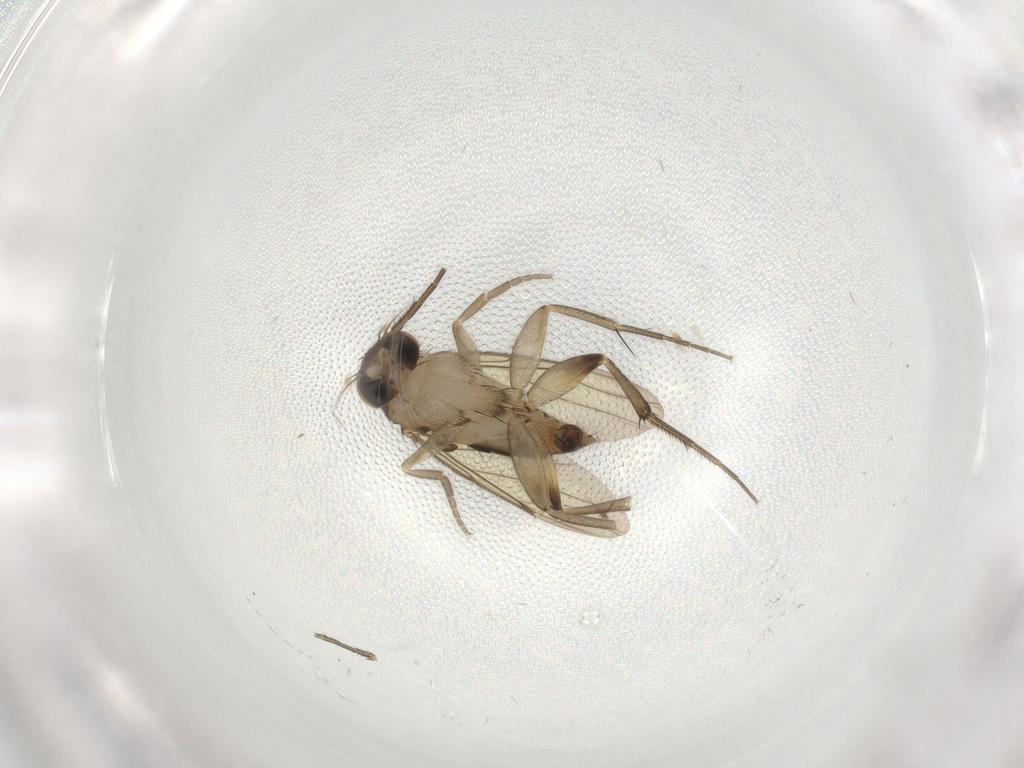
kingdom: Animalia
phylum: Arthropoda
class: Insecta
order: Diptera
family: Phoridae
